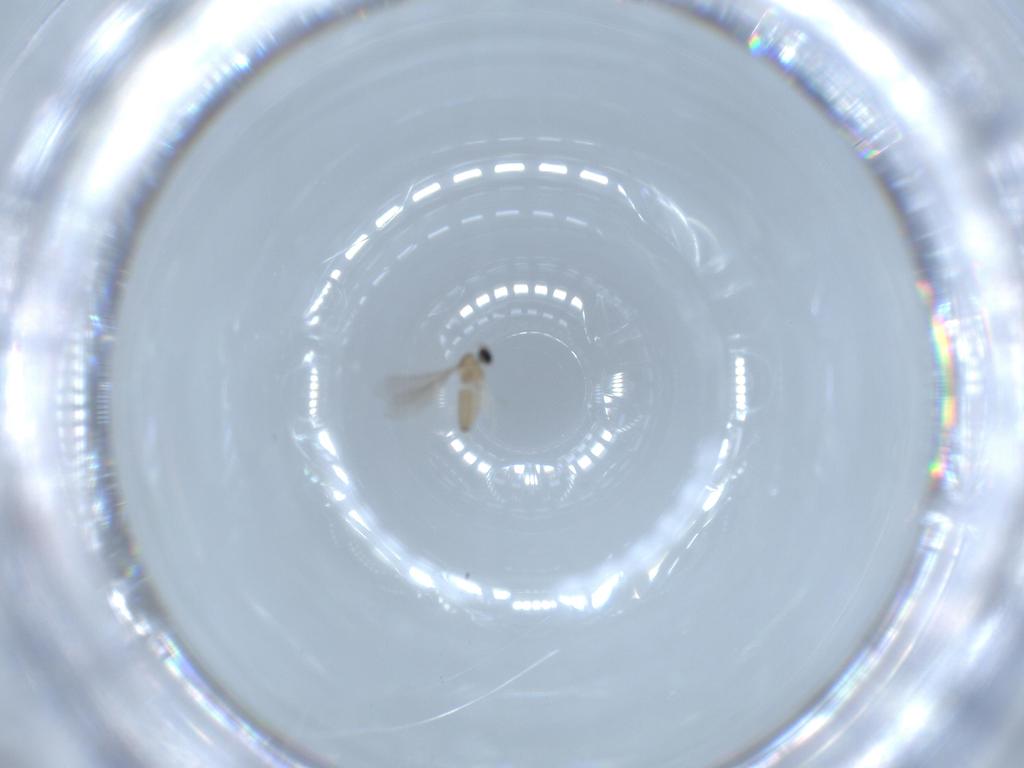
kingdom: Animalia
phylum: Arthropoda
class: Insecta
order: Diptera
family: Cecidomyiidae
